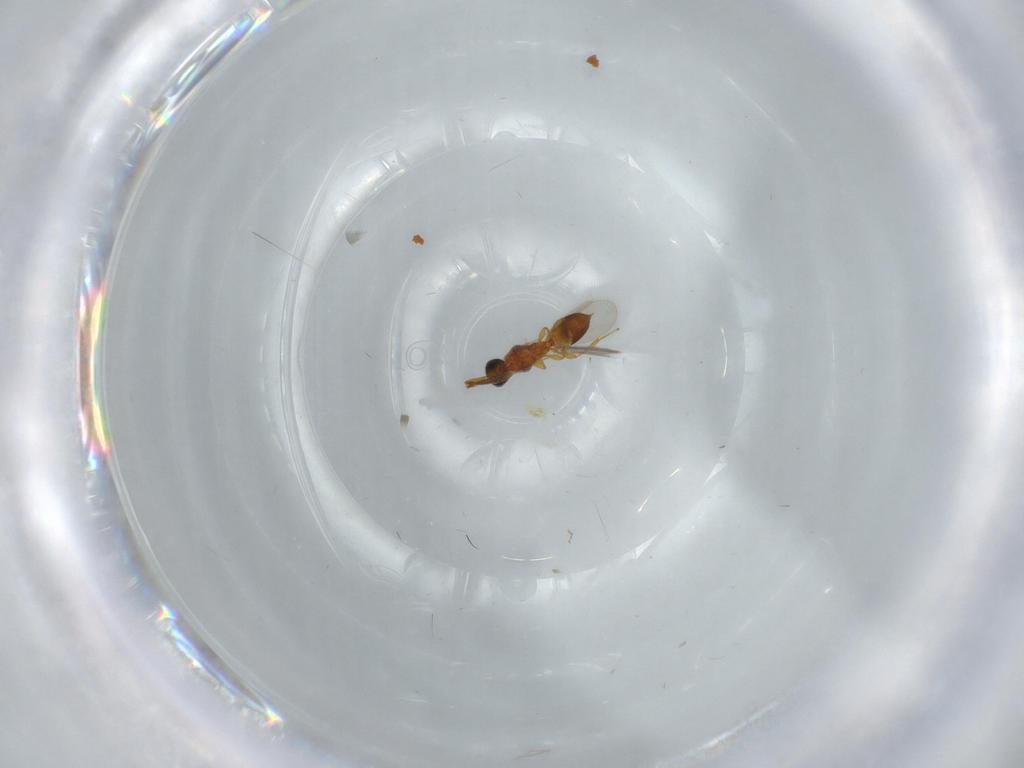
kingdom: Animalia
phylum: Arthropoda
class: Insecta
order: Hymenoptera
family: Diapriidae
